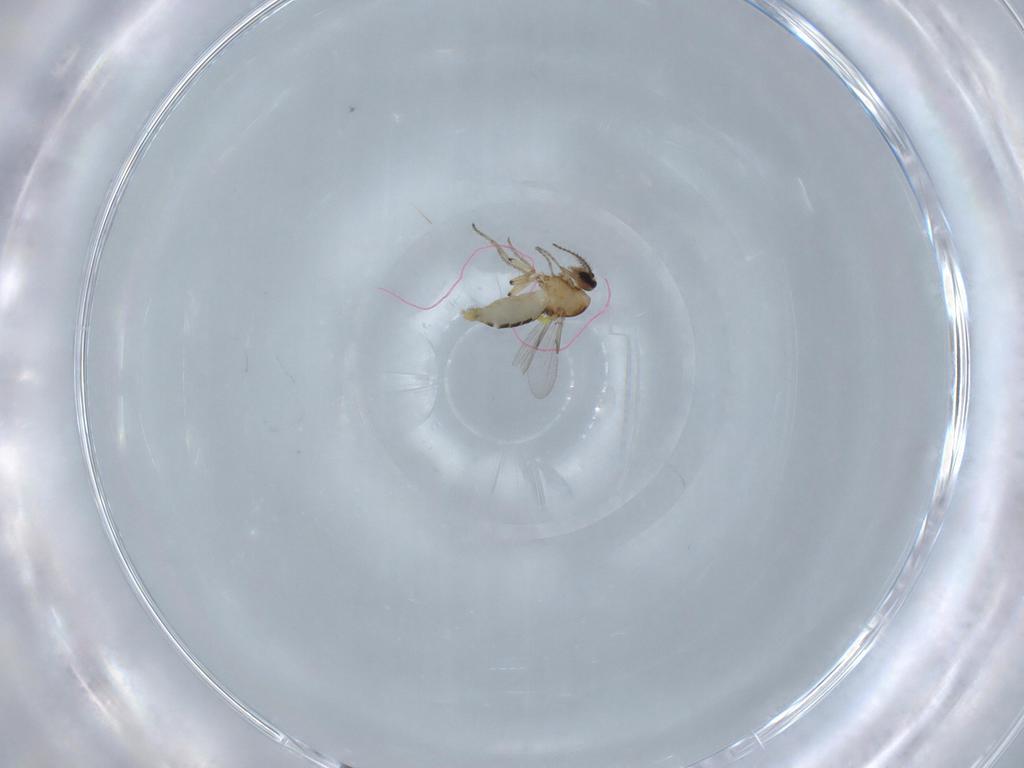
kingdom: Animalia
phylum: Arthropoda
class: Insecta
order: Diptera
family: Ceratopogonidae
